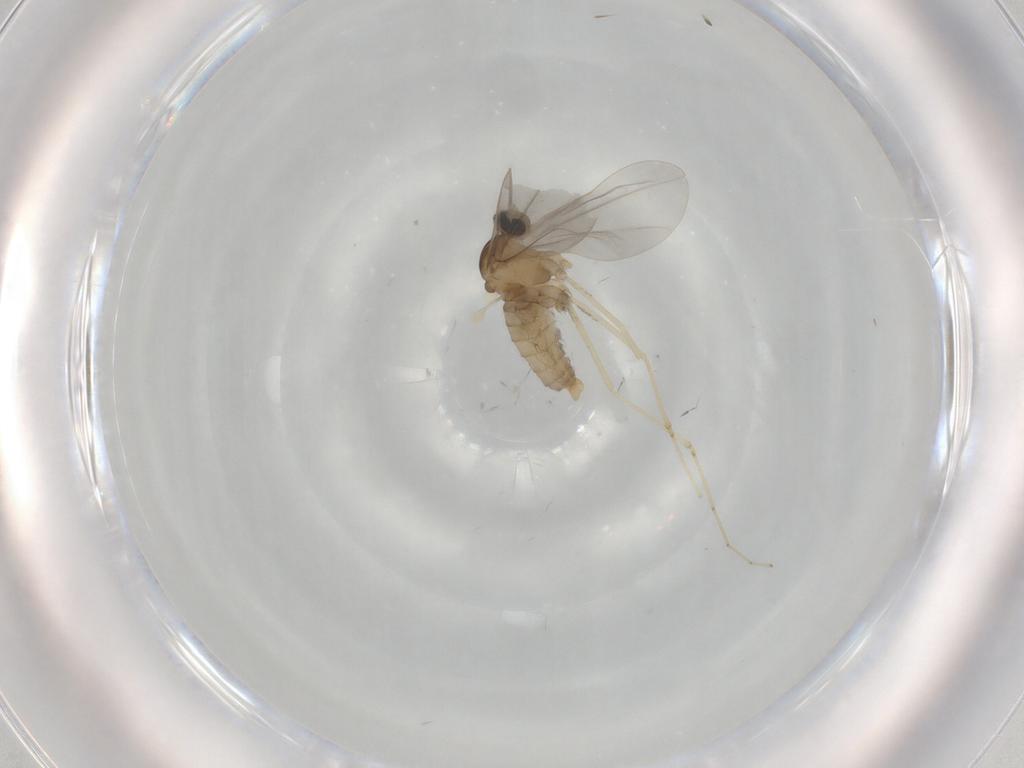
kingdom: Animalia
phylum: Arthropoda
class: Insecta
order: Diptera
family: Cecidomyiidae
